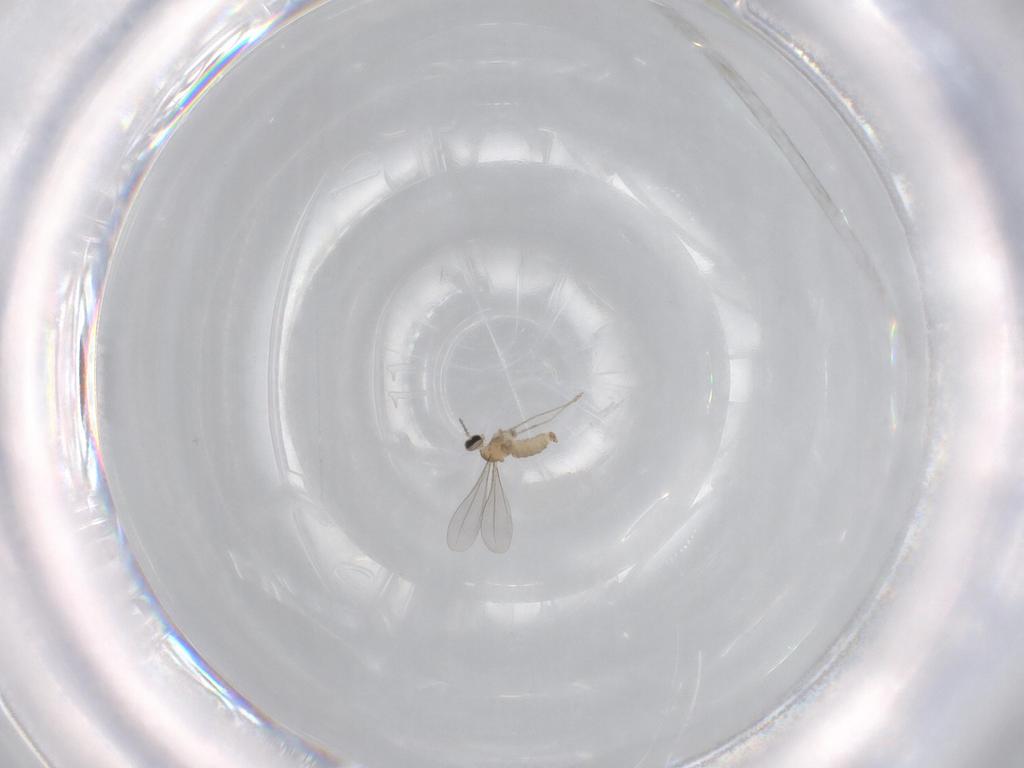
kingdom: Animalia
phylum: Arthropoda
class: Insecta
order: Diptera
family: Cecidomyiidae
